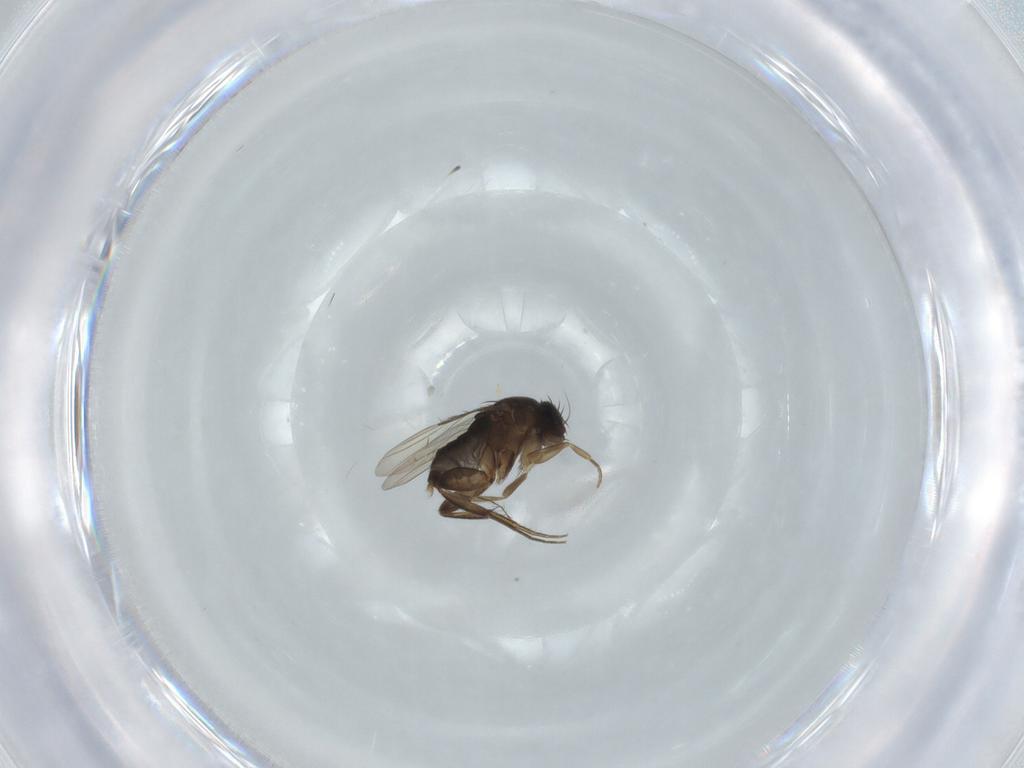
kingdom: Animalia
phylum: Arthropoda
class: Insecta
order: Diptera
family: Phoridae
